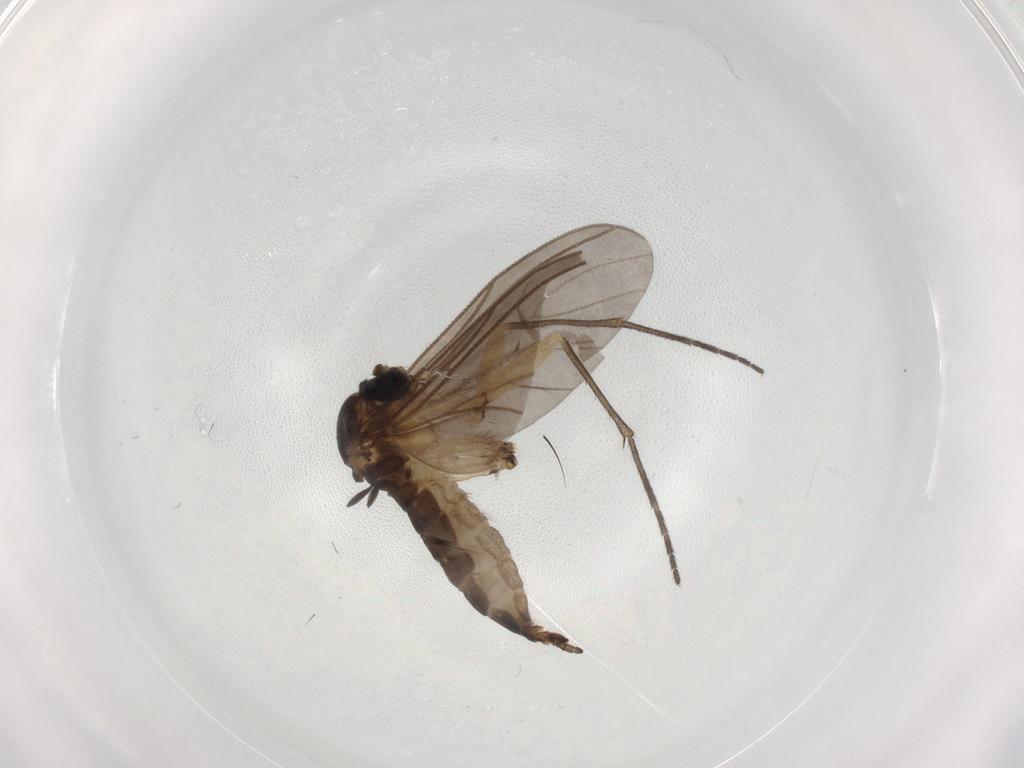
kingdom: Animalia
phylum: Arthropoda
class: Insecta
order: Diptera
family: Sciaridae
